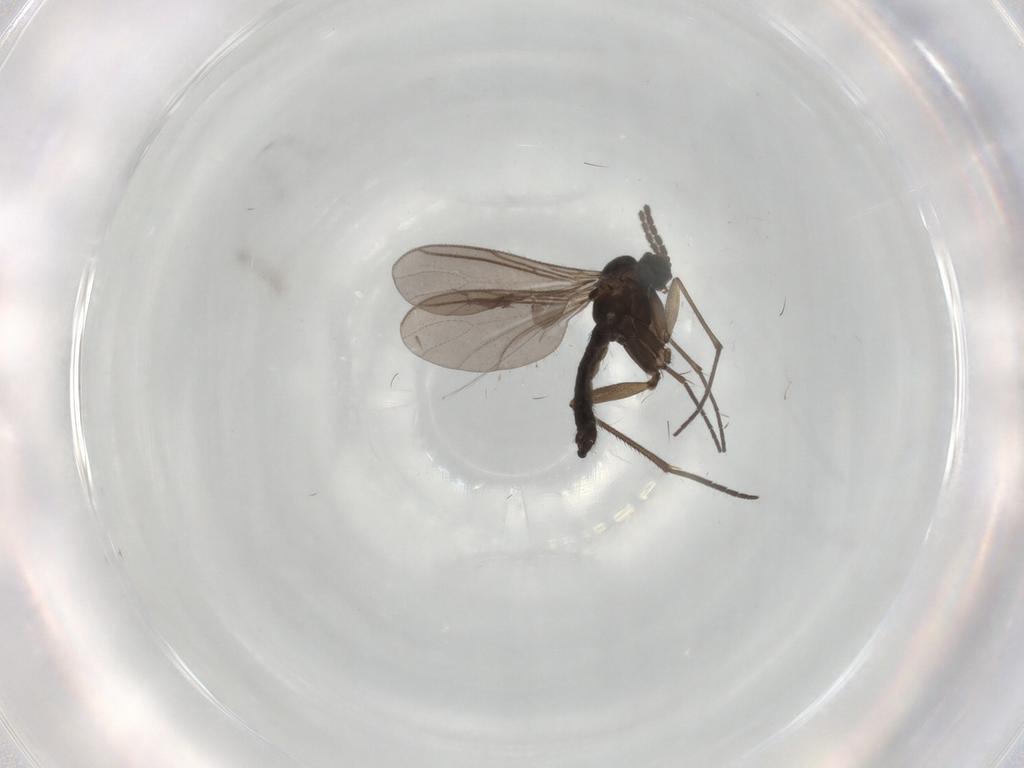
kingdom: Animalia
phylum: Arthropoda
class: Insecta
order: Diptera
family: Sciaridae
